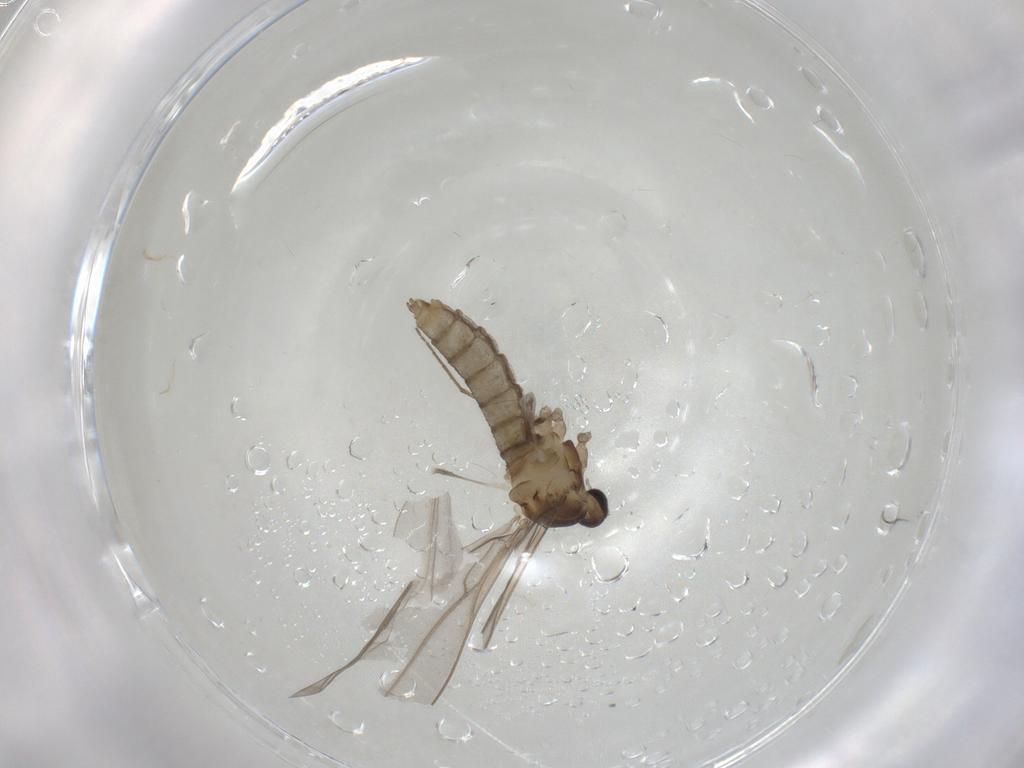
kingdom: Animalia
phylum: Arthropoda
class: Insecta
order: Diptera
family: Cecidomyiidae
